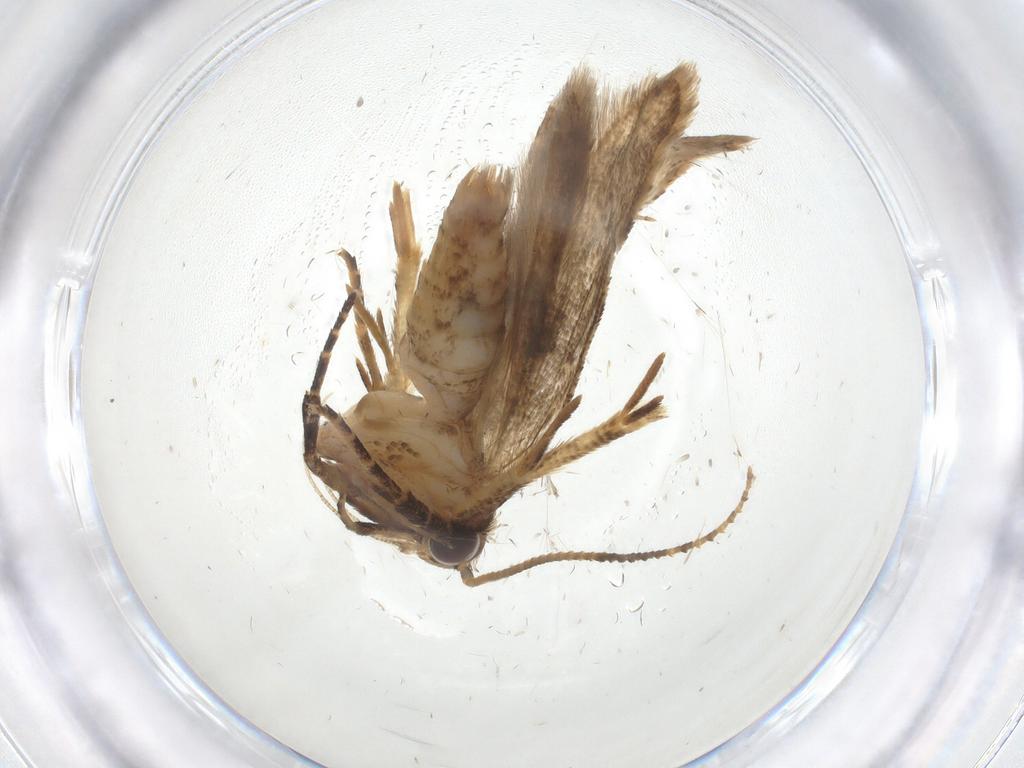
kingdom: Animalia
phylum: Arthropoda
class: Insecta
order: Lepidoptera
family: Gelechiidae
